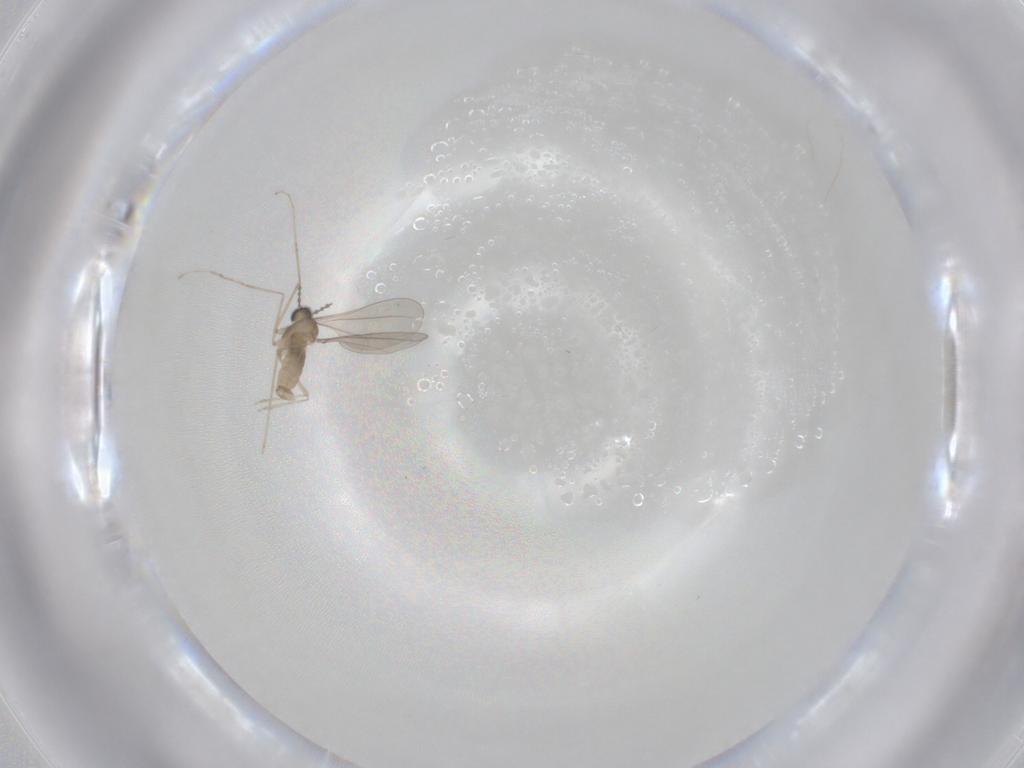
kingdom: Animalia
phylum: Arthropoda
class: Insecta
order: Diptera
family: Cecidomyiidae
